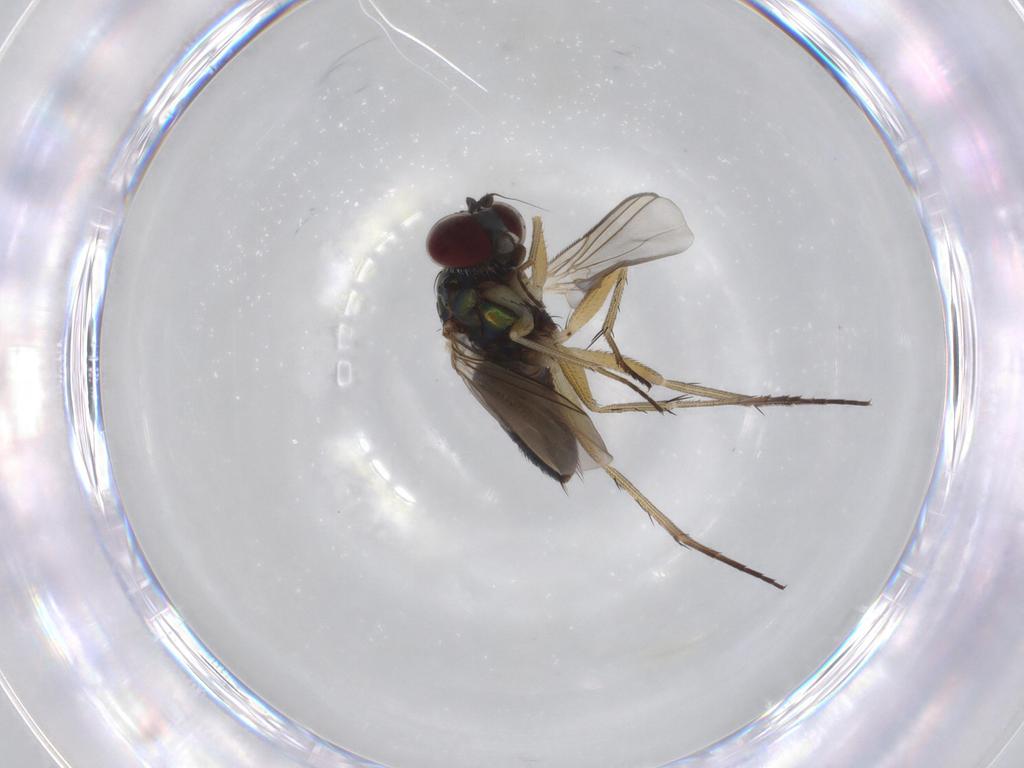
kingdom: Animalia
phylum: Arthropoda
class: Insecta
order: Diptera
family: Dolichopodidae
